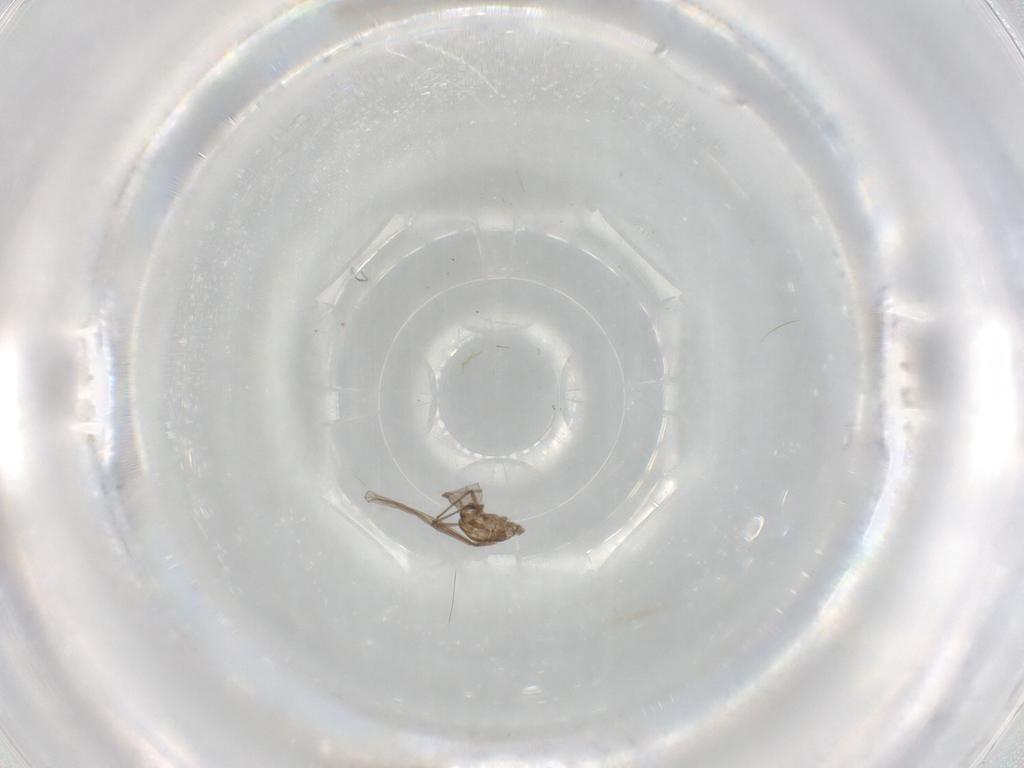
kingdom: Animalia
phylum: Arthropoda
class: Insecta
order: Diptera
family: Chironomidae
